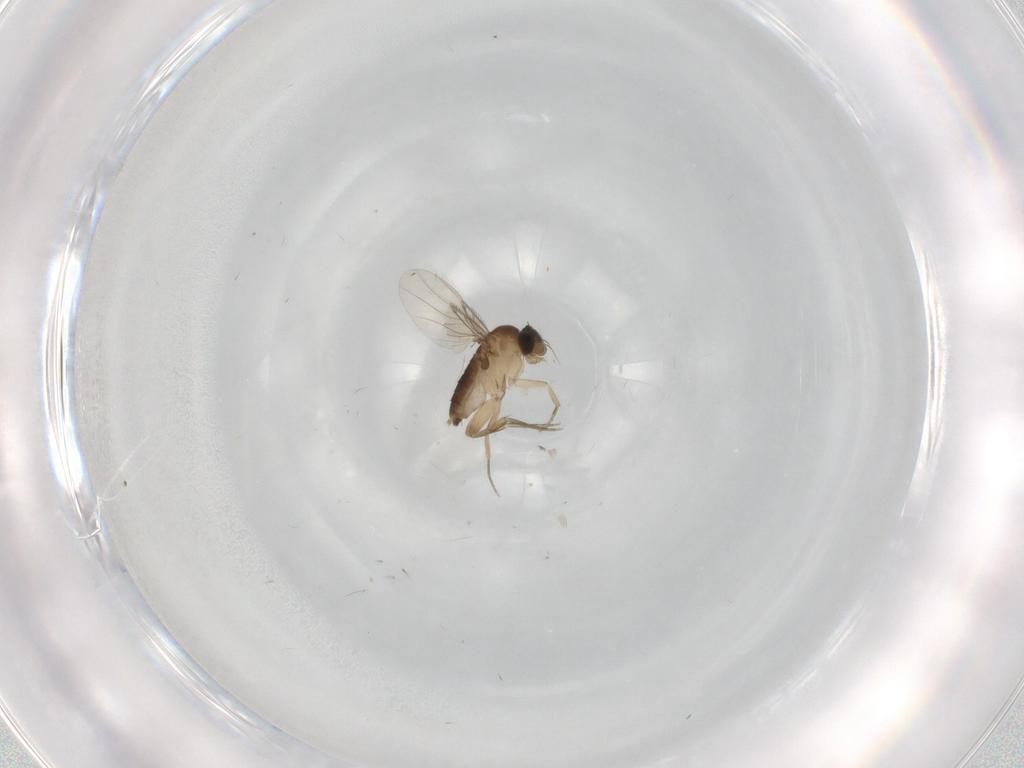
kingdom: Animalia
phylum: Arthropoda
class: Insecta
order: Diptera
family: Phoridae
